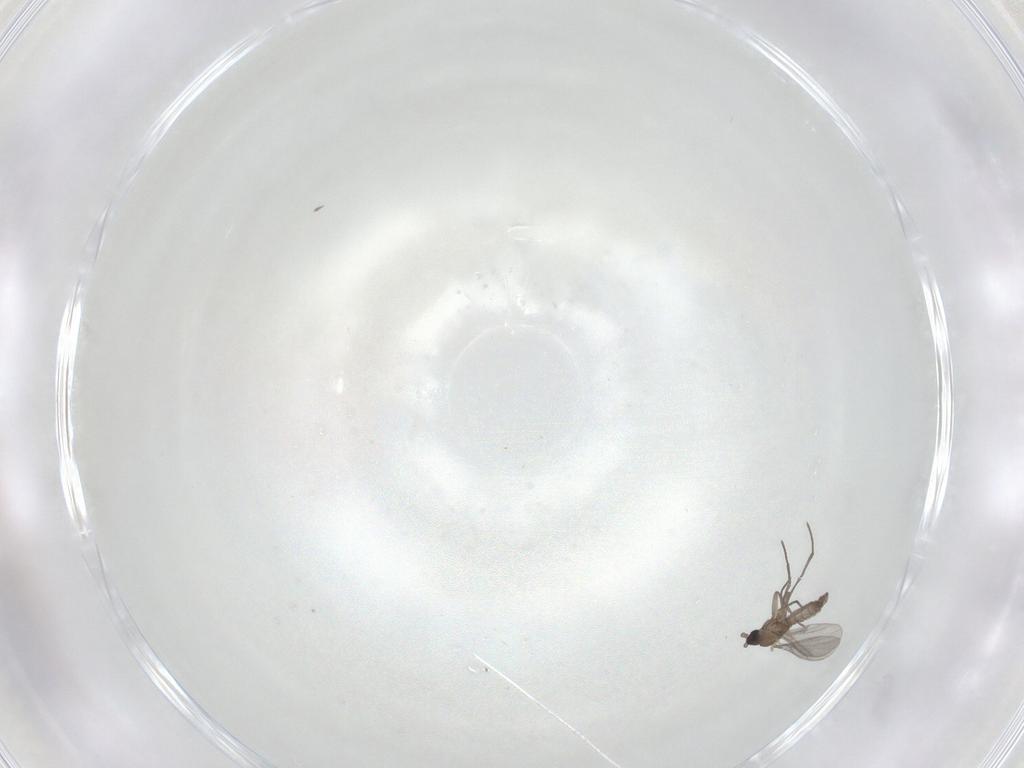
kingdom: Animalia
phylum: Arthropoda
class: Insecta
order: Diptera
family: Sciaridae
